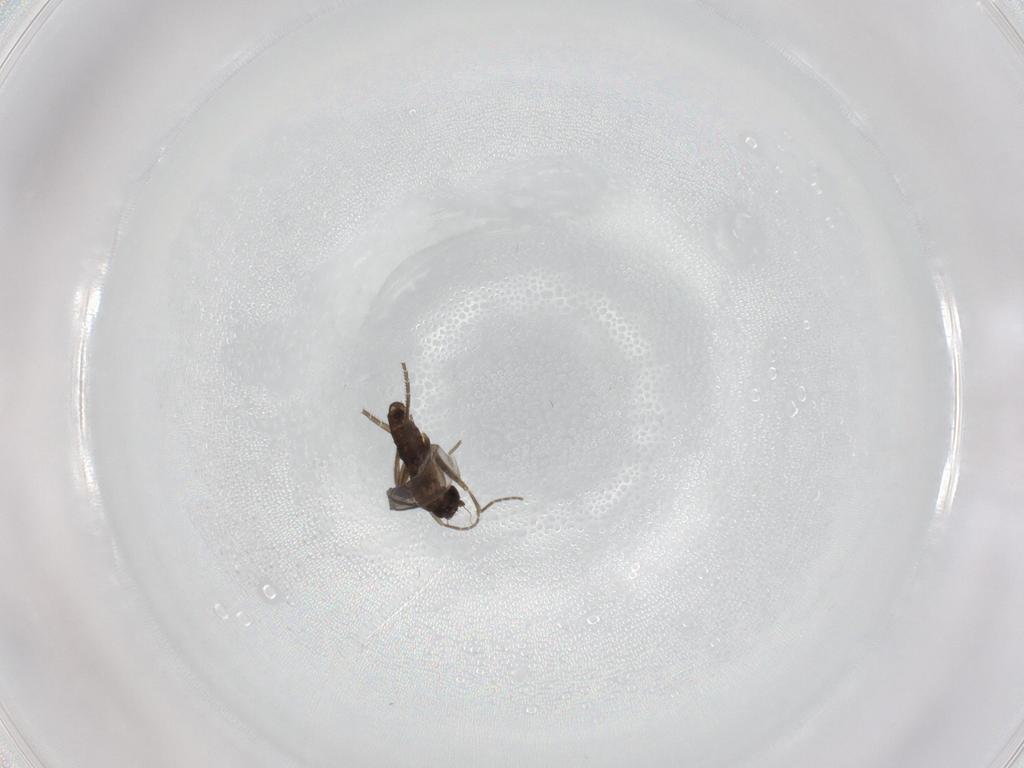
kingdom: Animalia
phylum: Arthropoda
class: Insecta
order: Diptera
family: Phoridae
